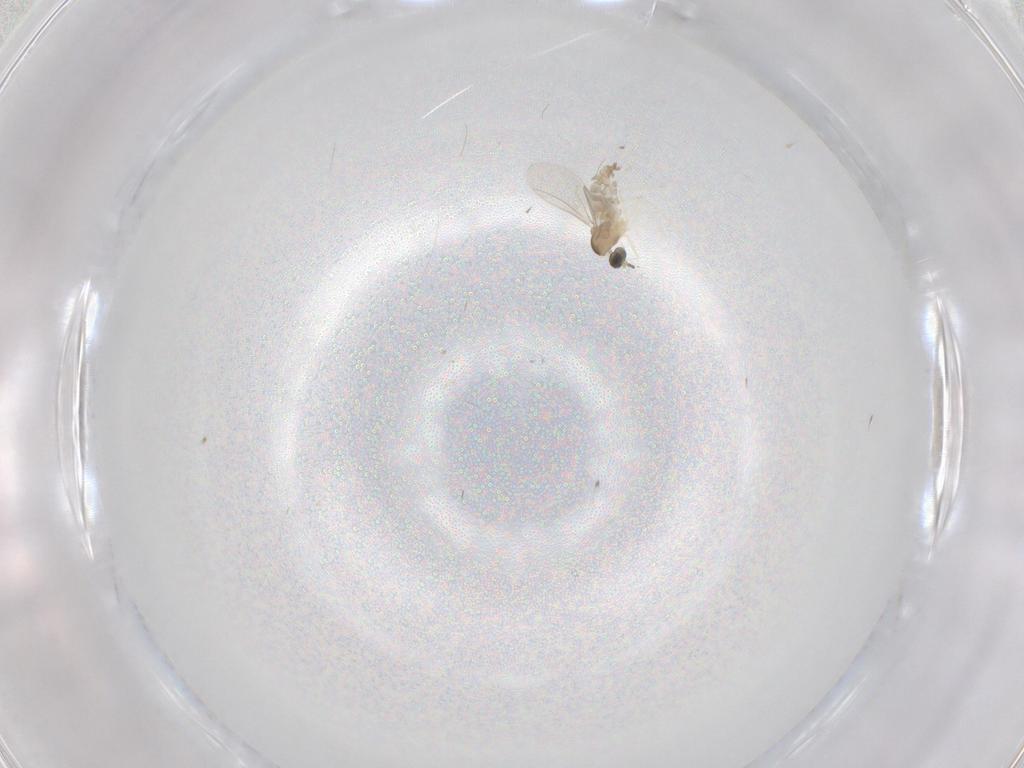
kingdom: Animalia
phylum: Arthropoda
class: Insecta
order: Diptera
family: Cecidomyiidae
